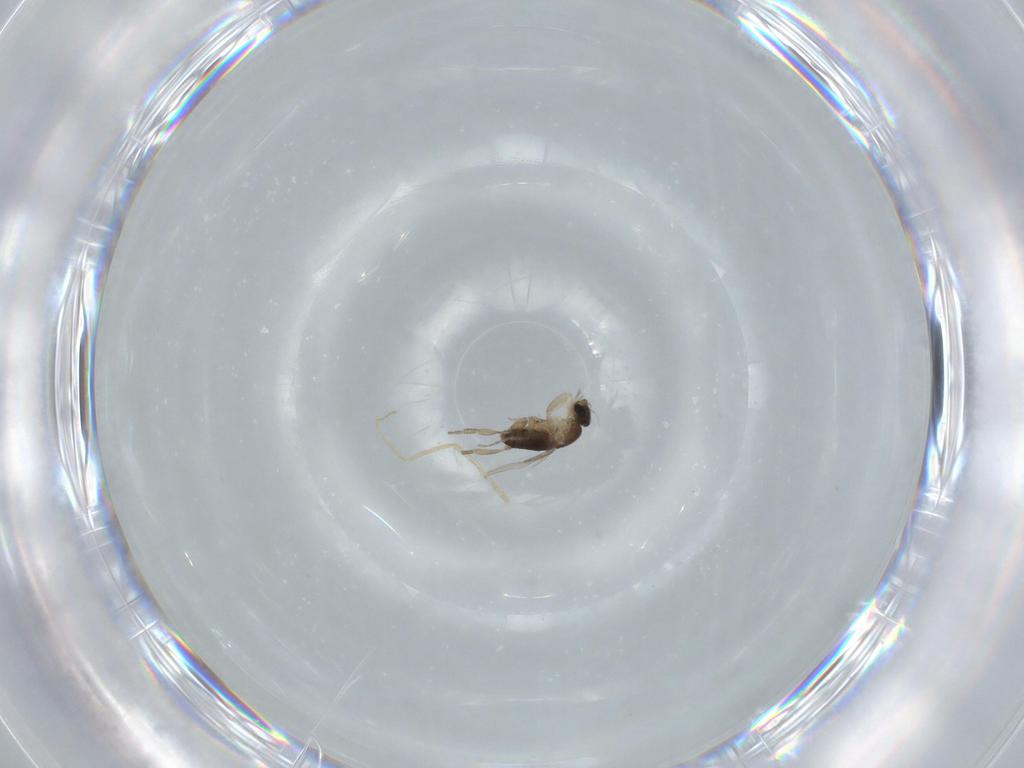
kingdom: Animalia
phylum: Arthropoda
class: Insecta
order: Diptera
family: Phoridae
